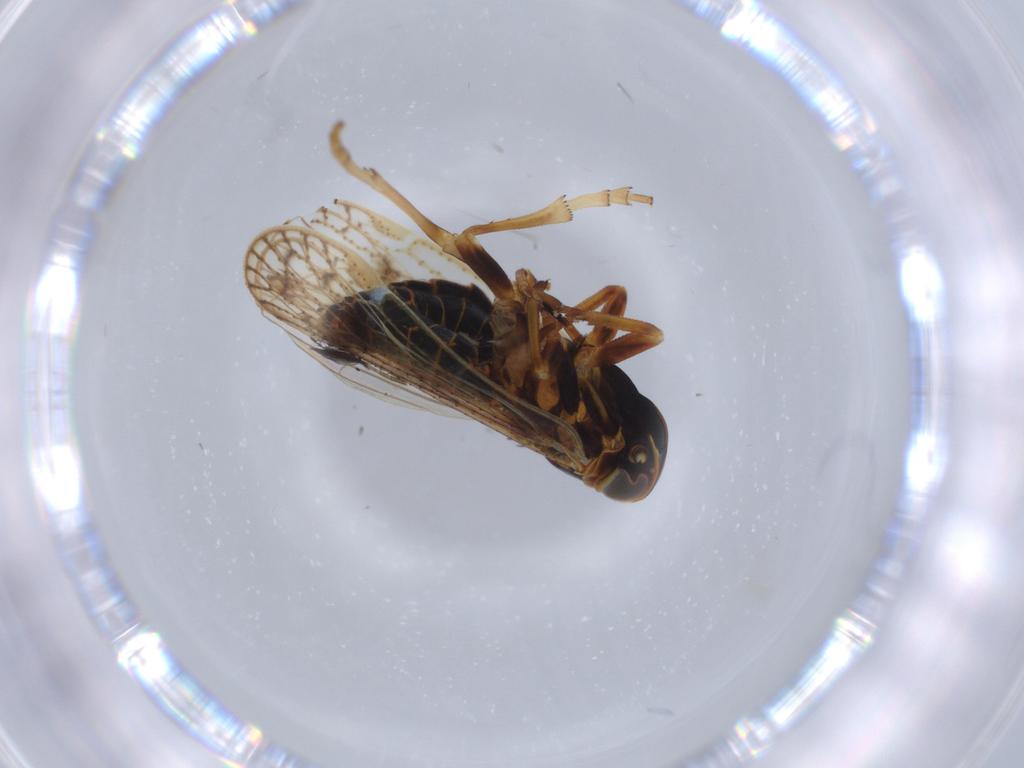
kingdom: Animalia
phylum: Arthropoda
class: Insecta
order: Hemiptera
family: Cixiidae
